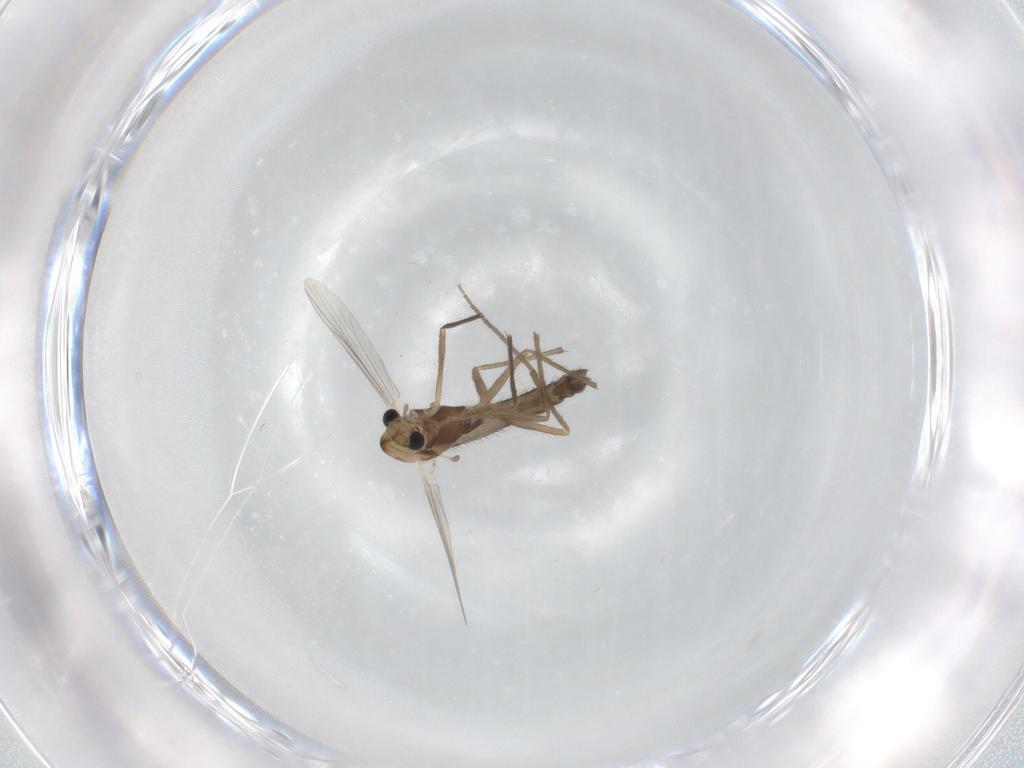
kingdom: Animalia
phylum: Arthropoda
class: Insecta
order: Diptera
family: Chironomidae
